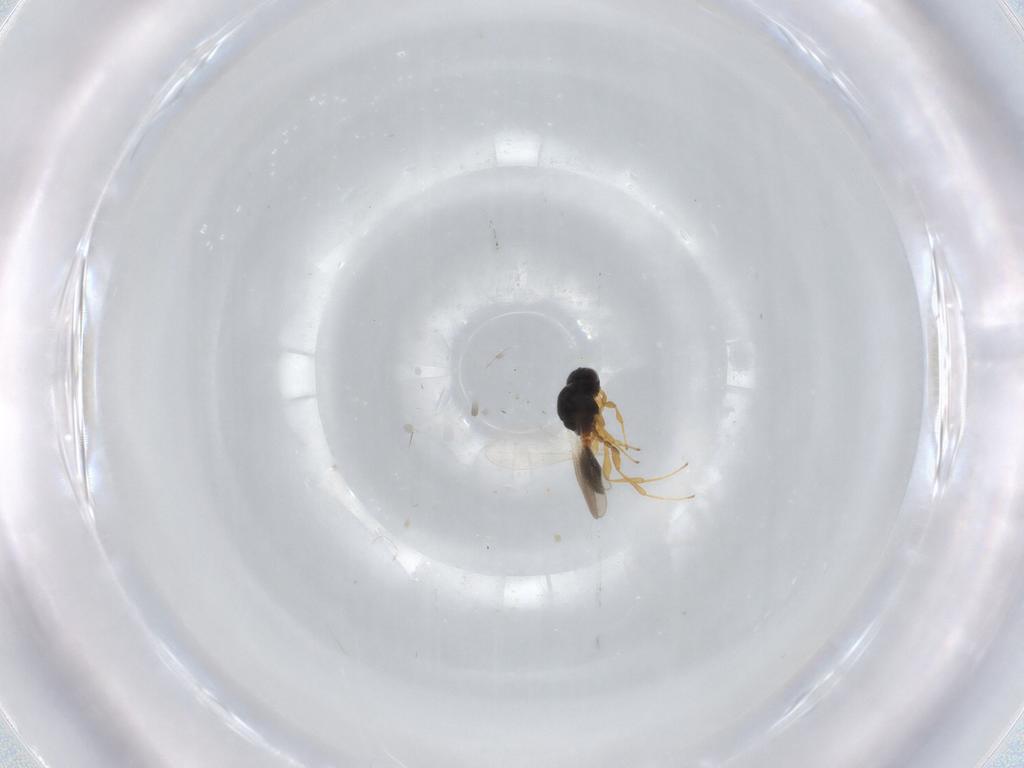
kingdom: Animalia
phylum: Arthropoda
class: Insecta
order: Hymenoptera
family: Platygastridae
